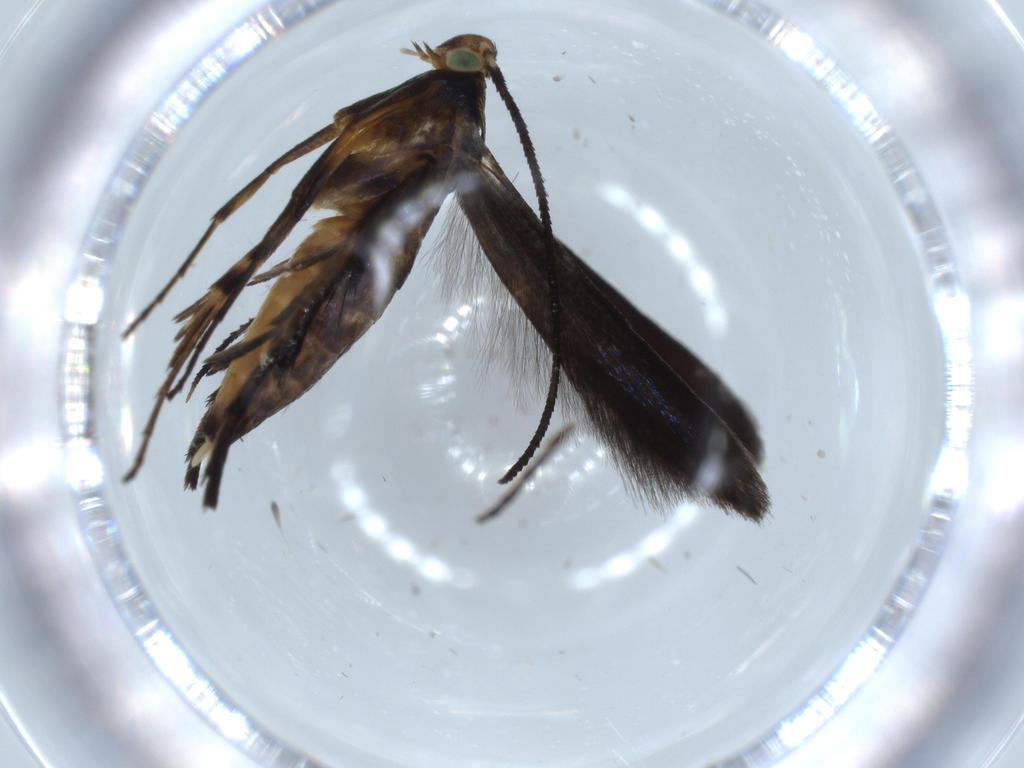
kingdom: Animalia
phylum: Arthropoda
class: Insecta
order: Lepidoptera
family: Heliodinidae
